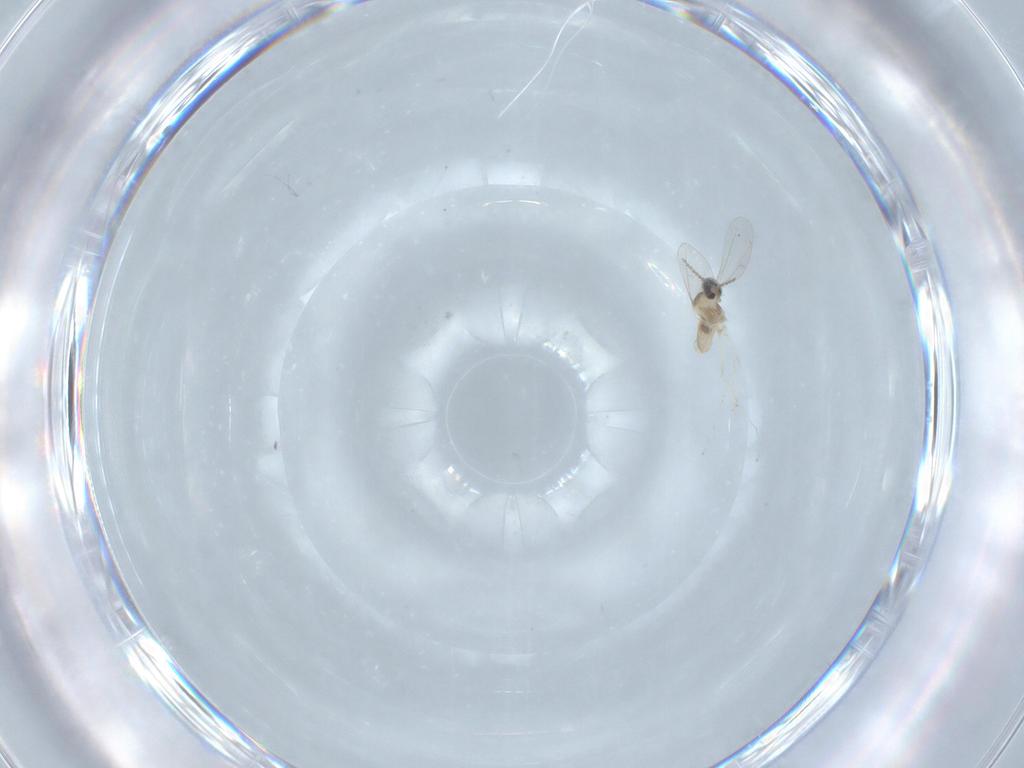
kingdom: Animalia
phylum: Arthropoda
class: Insecta
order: Diptera
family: Cecidomyiidae
